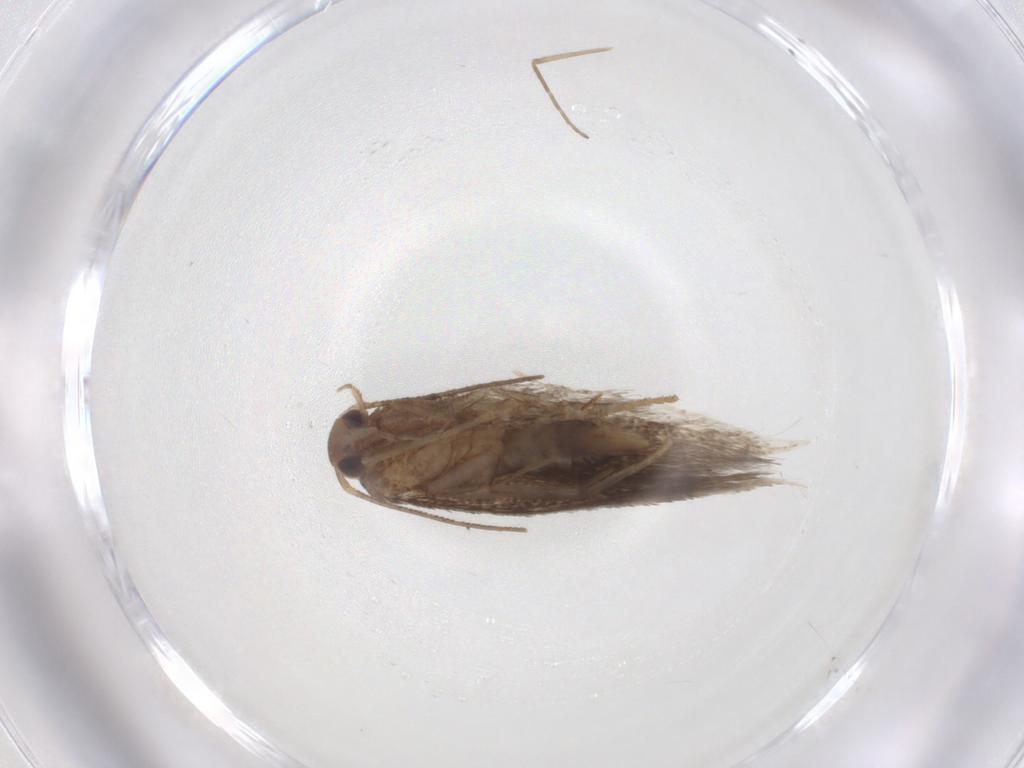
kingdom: Animalia
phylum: Arthropoda
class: Insecta
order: Lepidoptera
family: Elachistidae
